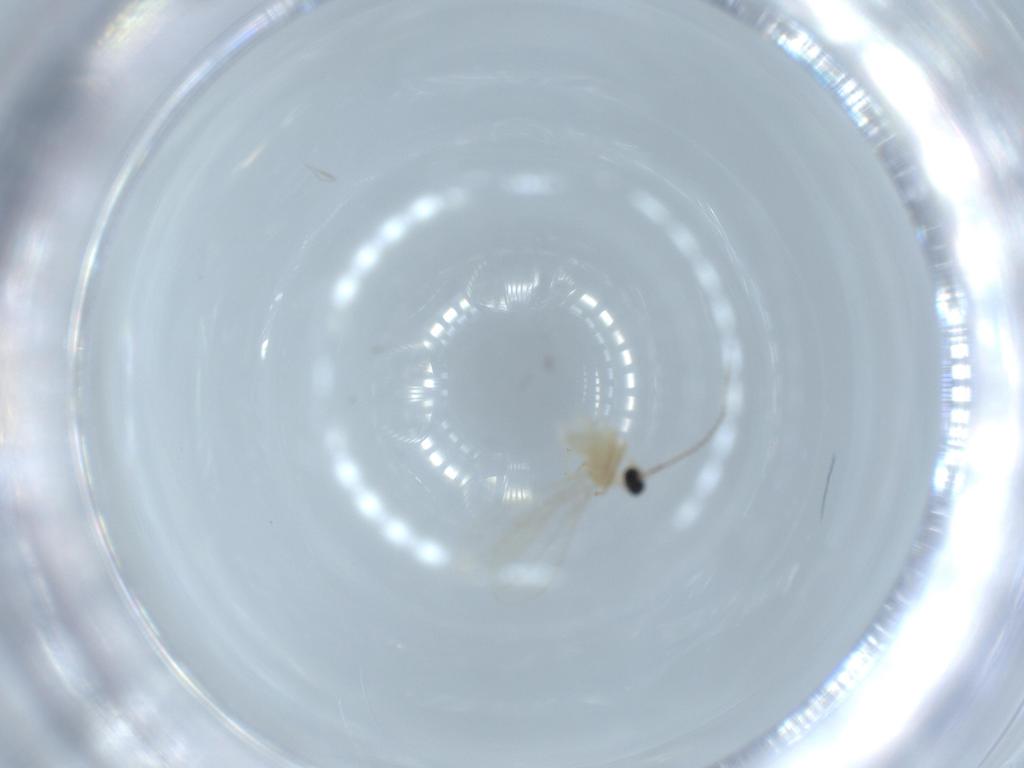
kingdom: Animalia
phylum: Arthropoda
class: Insecta
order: Diptera
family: Cecidomyiidae
